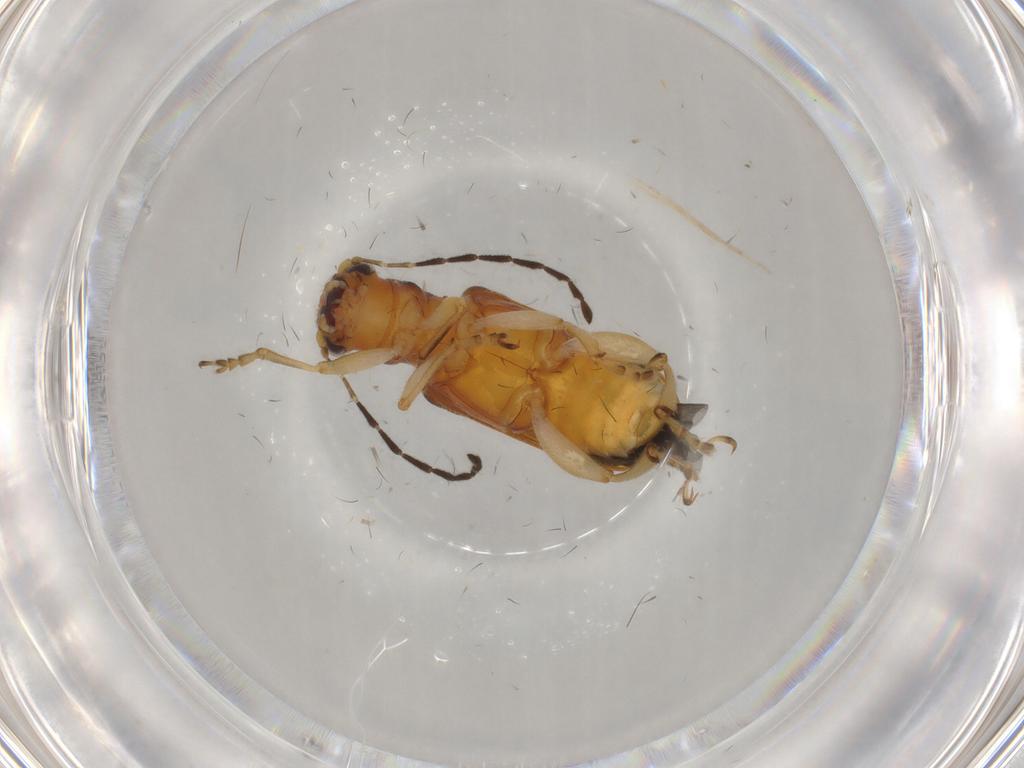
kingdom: Animalia
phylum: Arthropoda
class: Insecta
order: Coleoptera
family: Chrysomelidae
